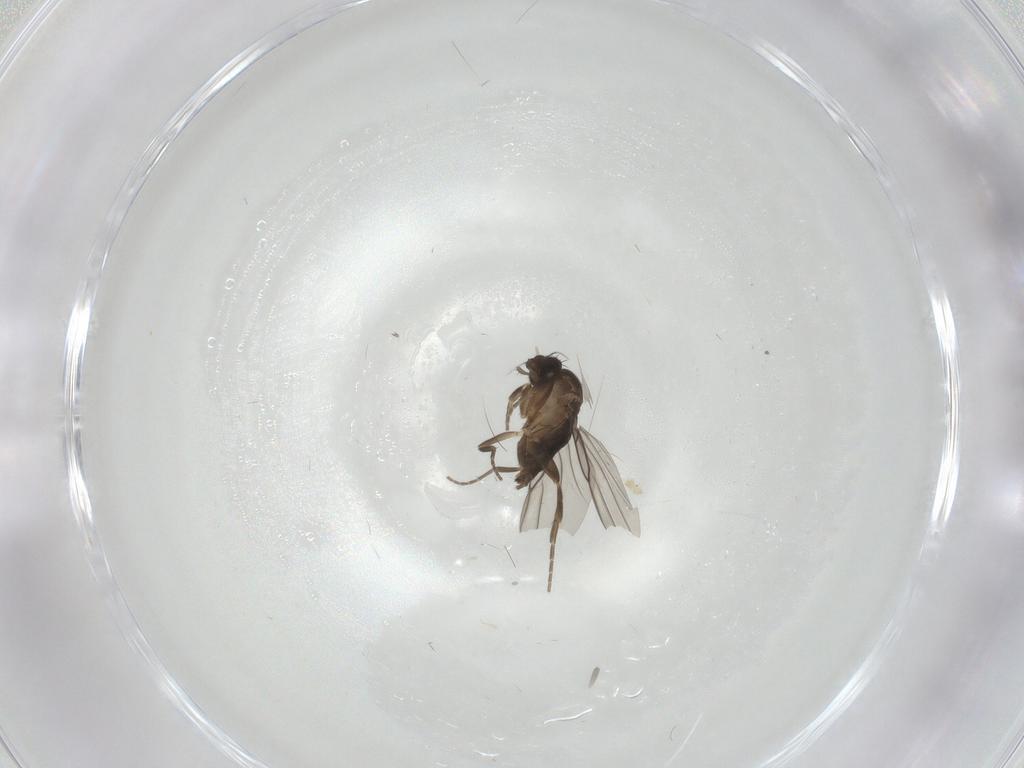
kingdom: Animalia
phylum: Arthropoda
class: Insecta
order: Diptera
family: Phoridae
